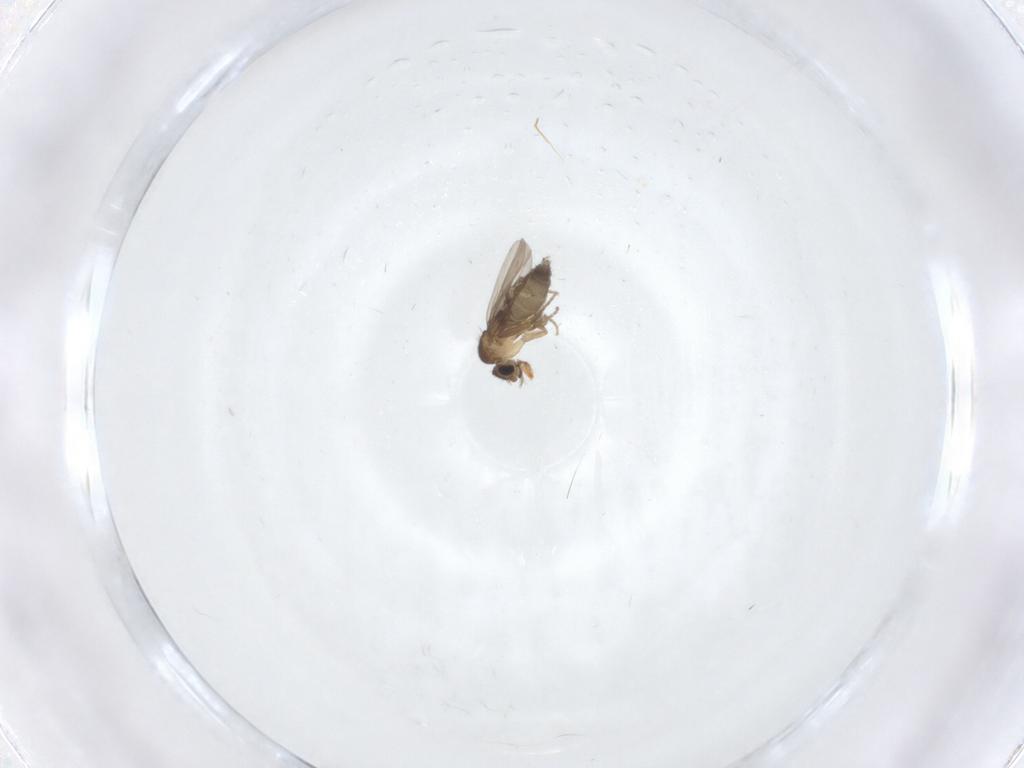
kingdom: Animalia
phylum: Arthropoda
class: Insecta
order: Diptera
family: Phoridae
